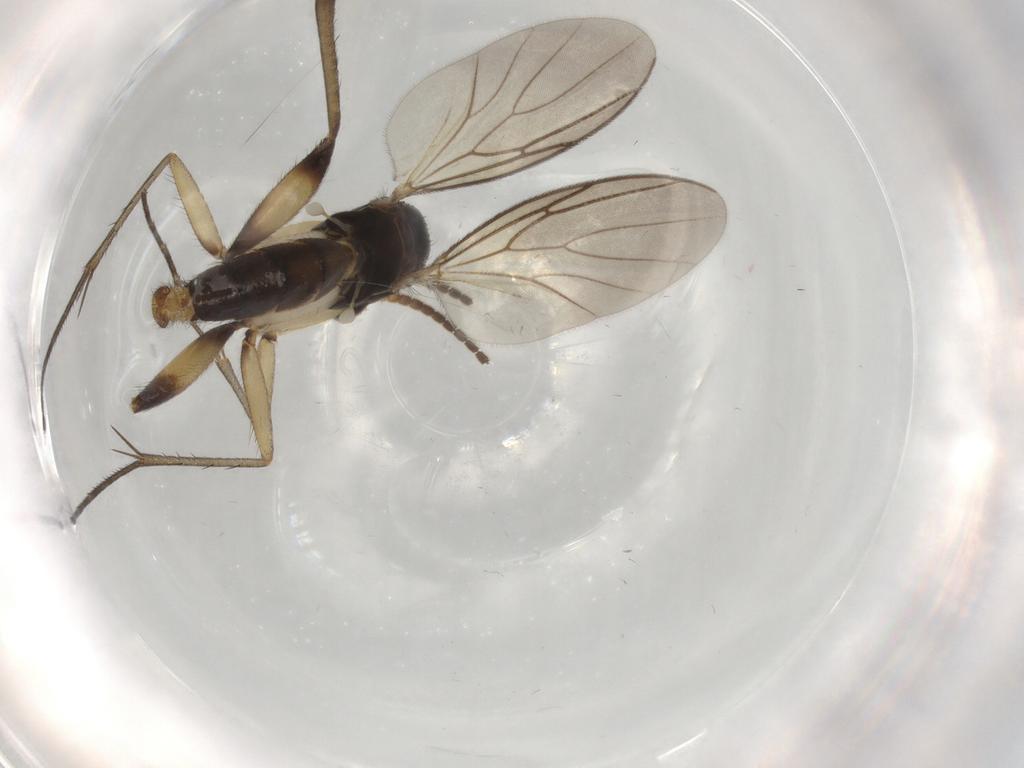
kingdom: Animalia
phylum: Arthropoda
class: Insecta
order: Diptera
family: Mycetophilidae
